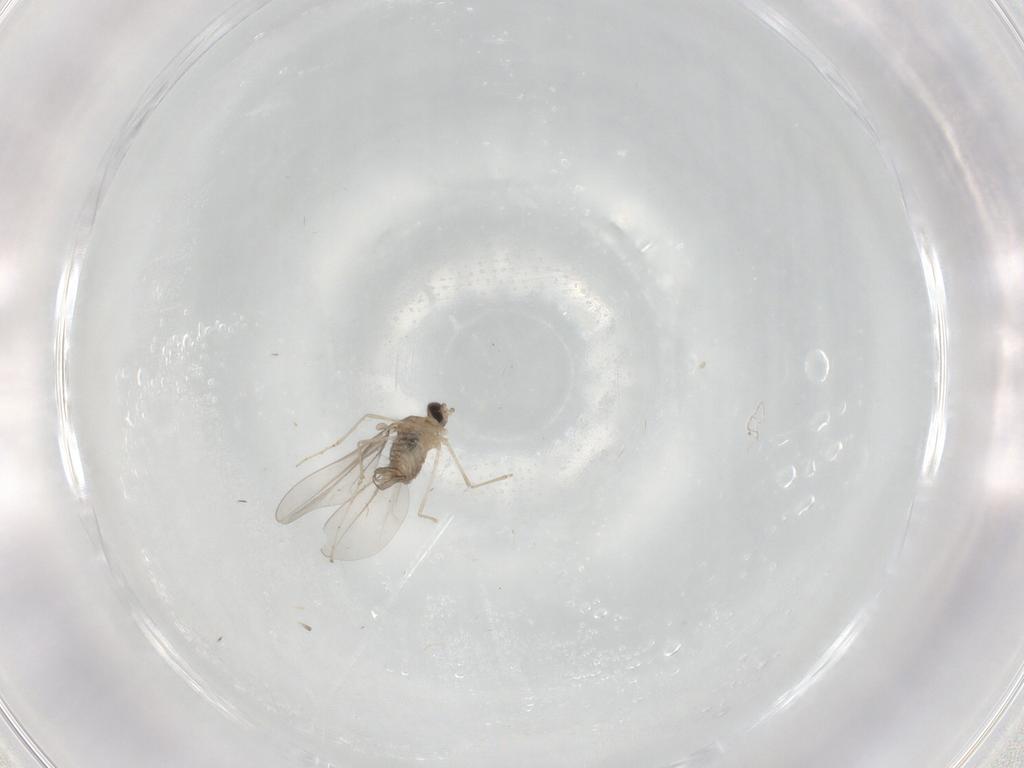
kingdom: Animalia
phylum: Arthropoda
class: Insecta
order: Diptera
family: Cecidomyiidae
